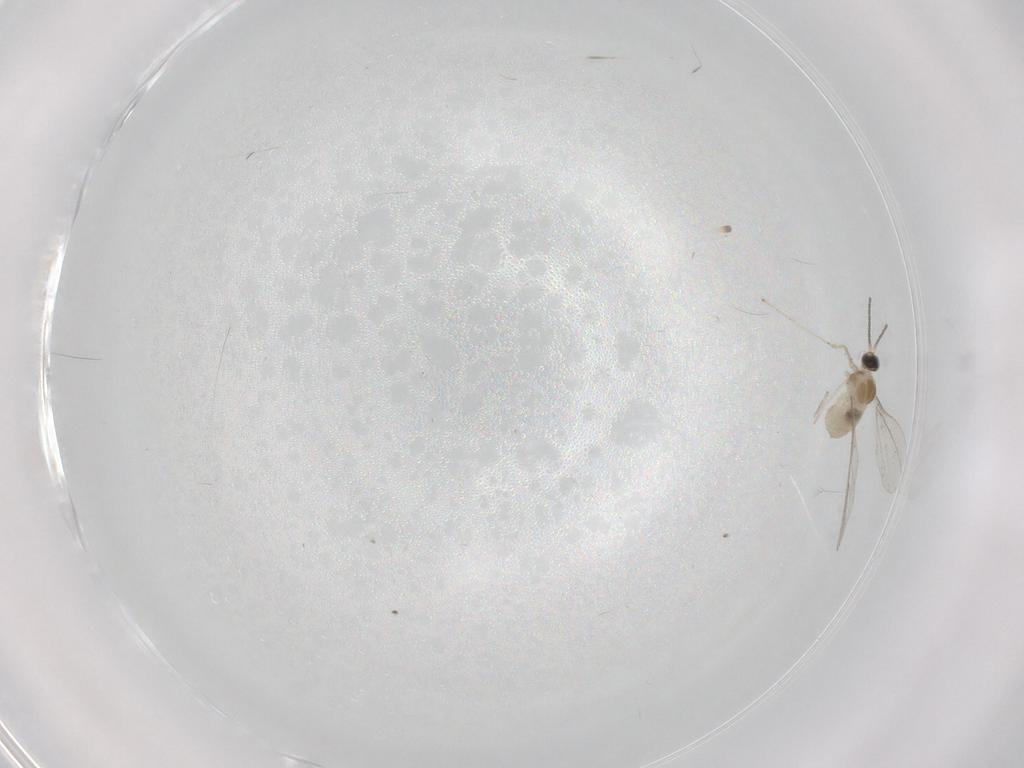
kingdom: Animalia
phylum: Arthropoda
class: Insecta
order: Diptera
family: Cecidomyiidae
